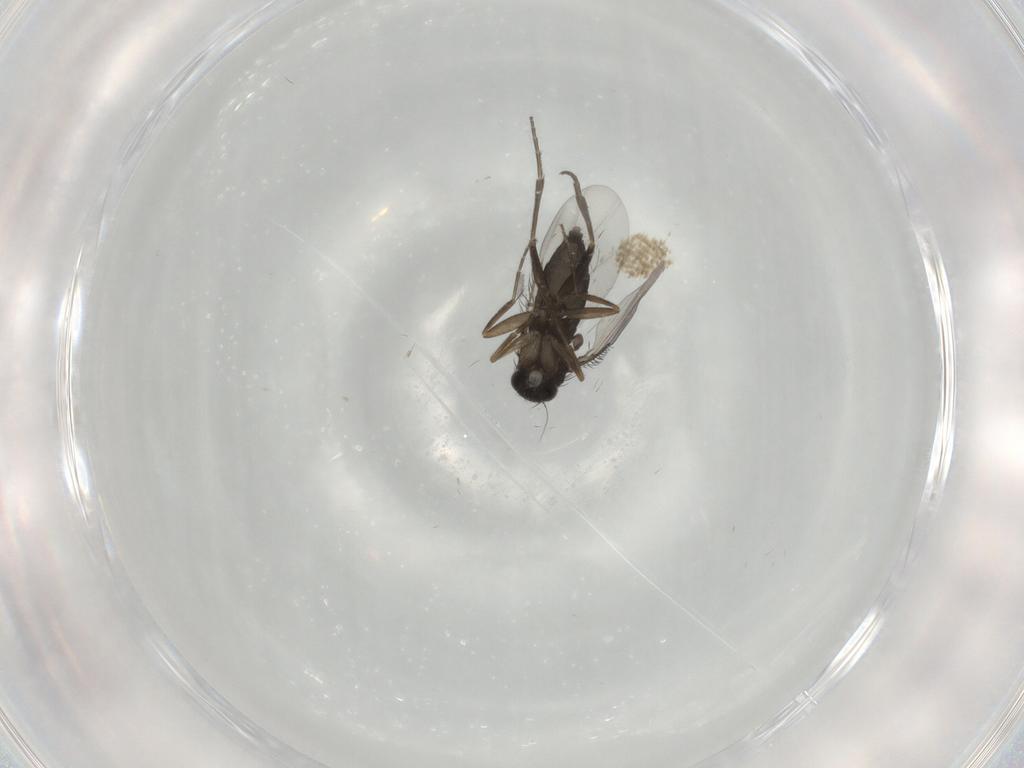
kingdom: Animalia
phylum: Arthropoda
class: Insecta
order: Diptera
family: Phoridae
